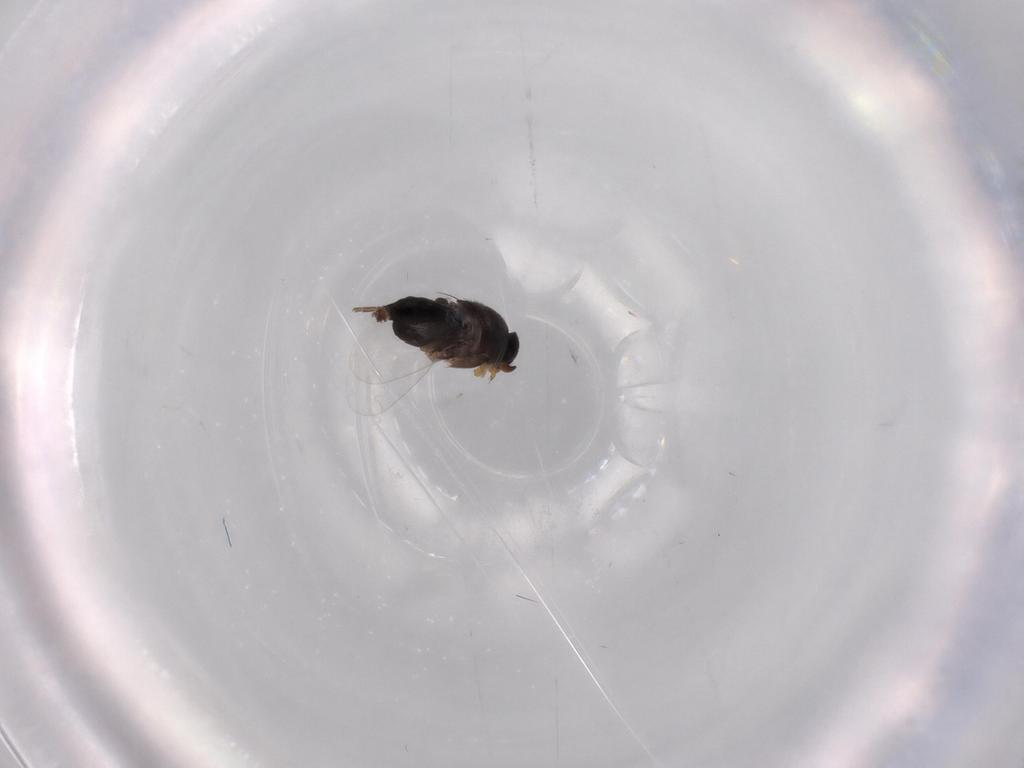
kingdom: Animalia
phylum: Arthropoda
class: Insecta
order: Diptera
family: Phoridae
